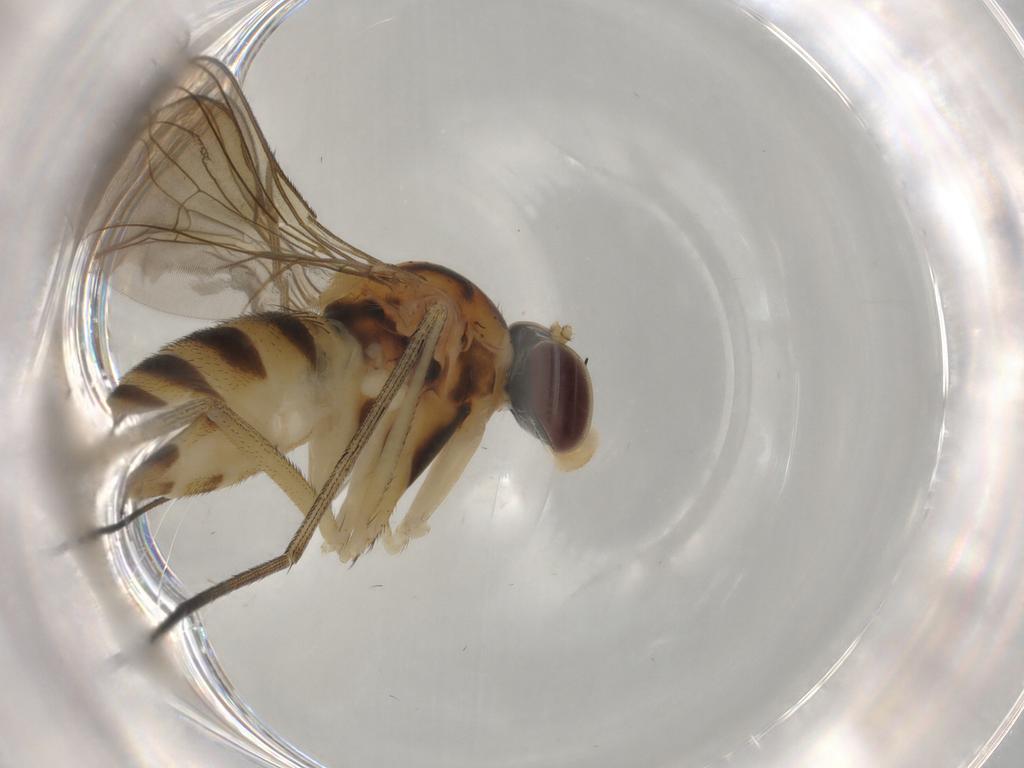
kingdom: Animalia
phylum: Arthropoda
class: Insecta
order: Diptera
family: Cecidomyiidae
